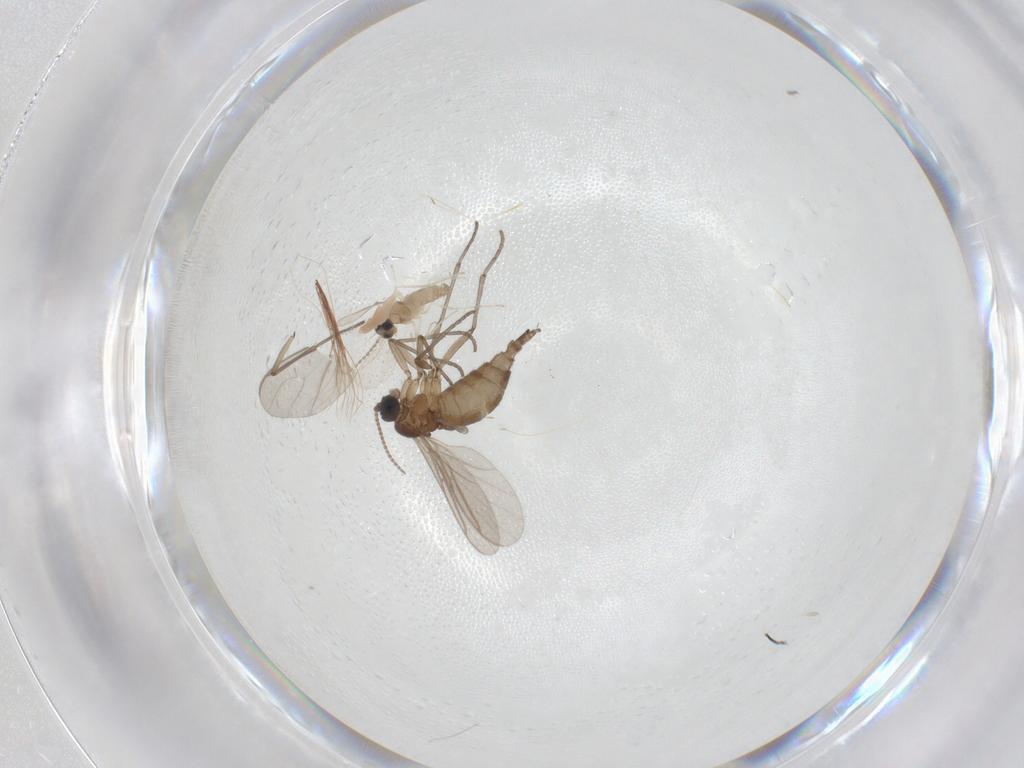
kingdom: Animalia
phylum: Arthropoda
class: Insecta
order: Diptera
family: Sciaridae
